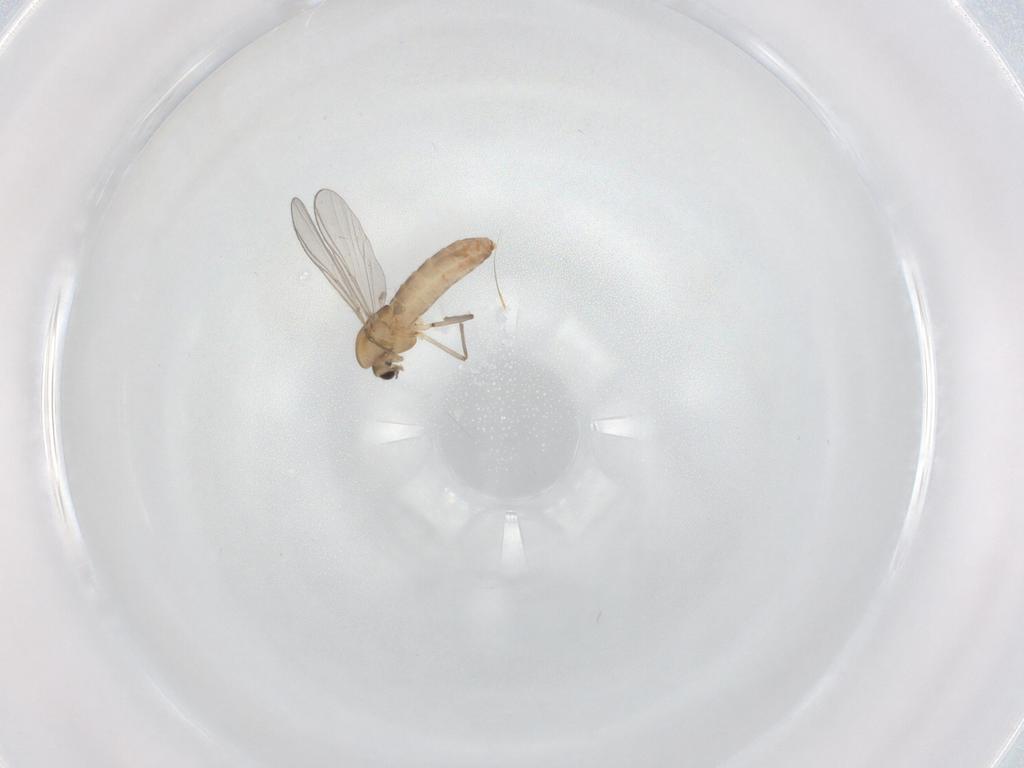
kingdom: Animalia
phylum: Arthropoda
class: Insecta
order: Diptera
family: Chironomidae
